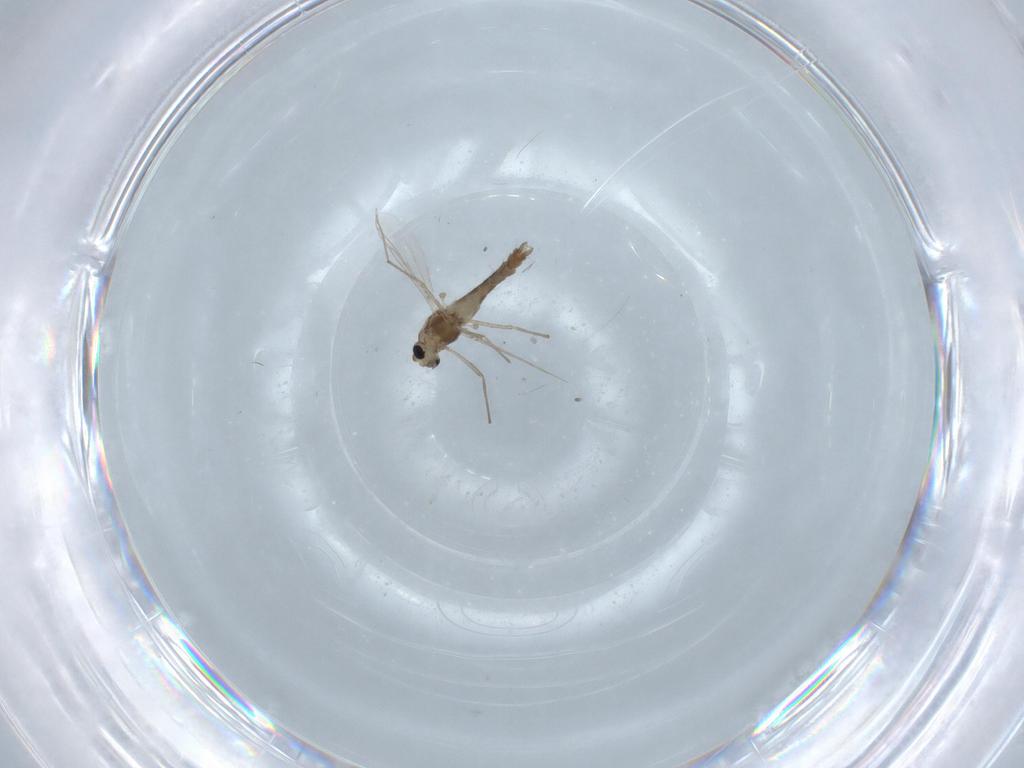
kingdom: Animalia
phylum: Arthropoda
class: Insecta
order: Diptera
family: Chironomidae
